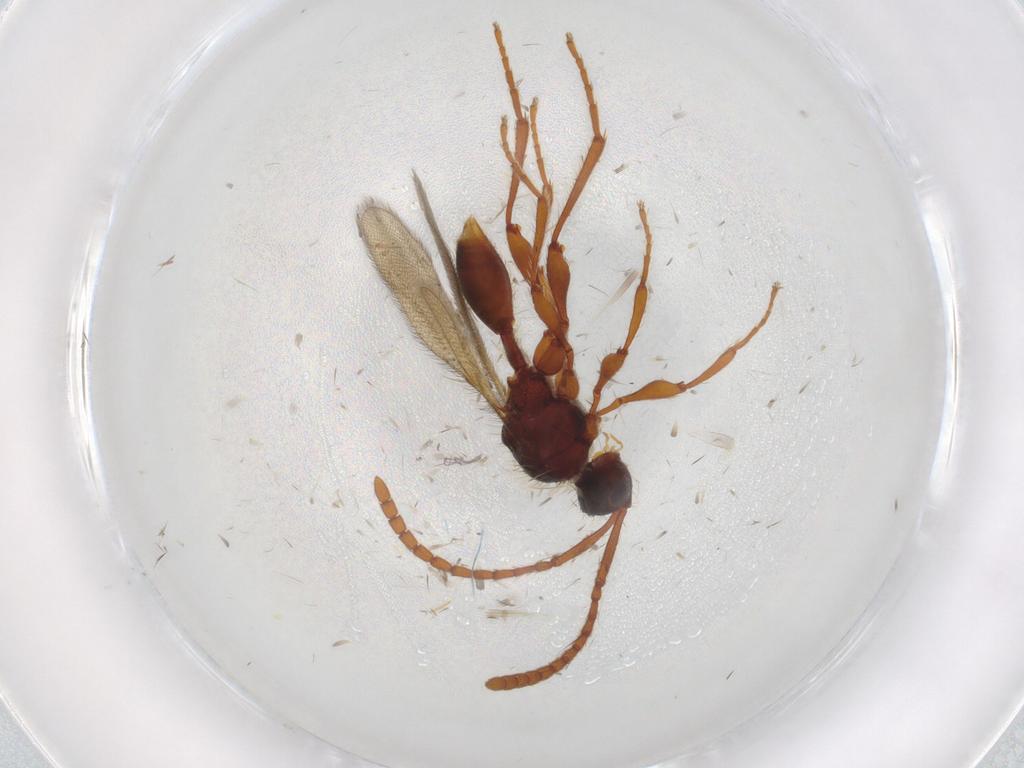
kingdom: Animalia
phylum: Arthropoda
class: Insecta
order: Hymenoptera
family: Diapriidae
